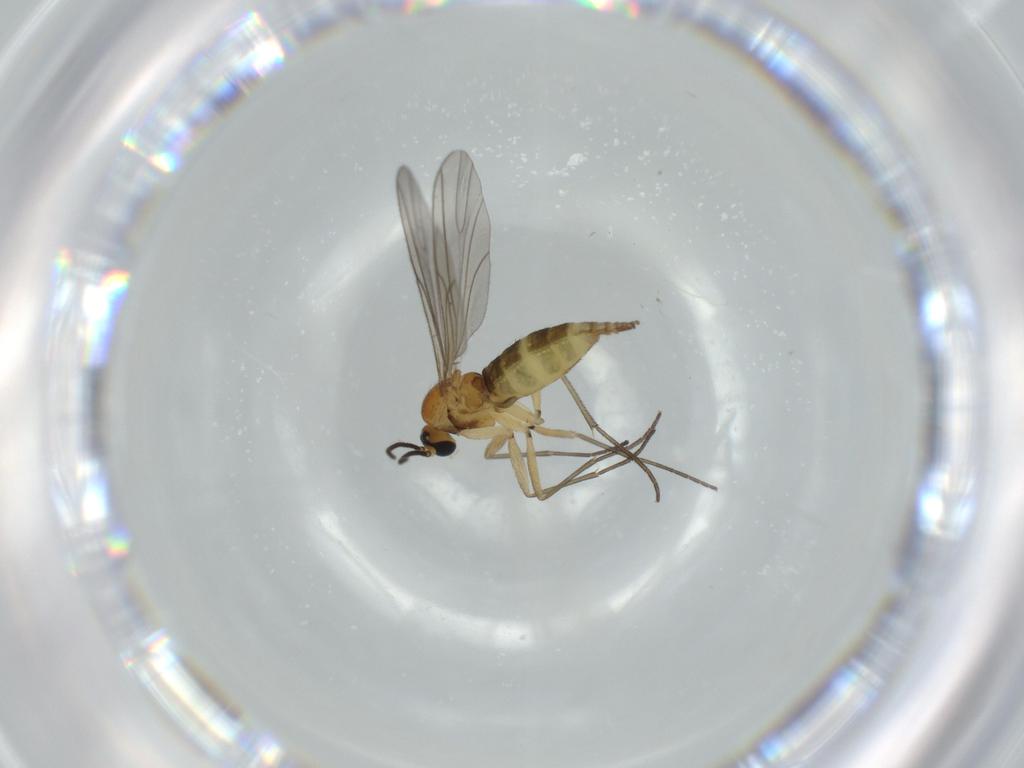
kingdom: Animalia
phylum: Arthropoda
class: Insecta
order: Diptera
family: Sciaridae
